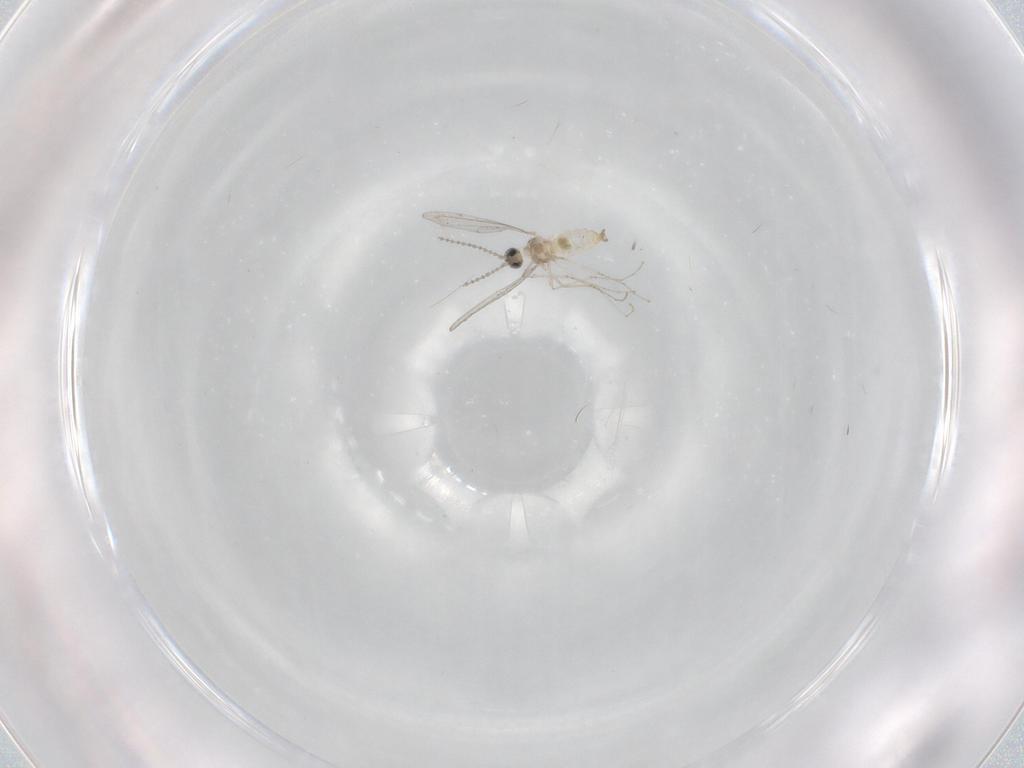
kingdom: Animalia
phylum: Arthropoda
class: Insecta
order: Diptera
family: Cecidomyiidae
